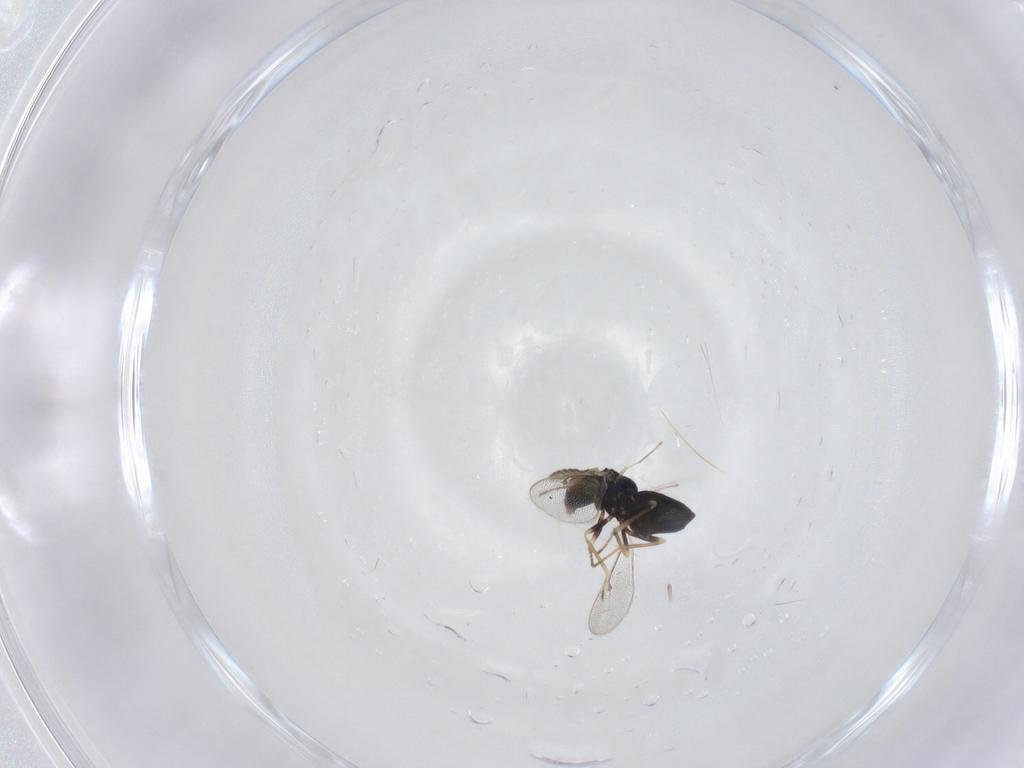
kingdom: Animalia
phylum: Arthropoda
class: Insecta
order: Hymenoptera
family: Eulophidae
